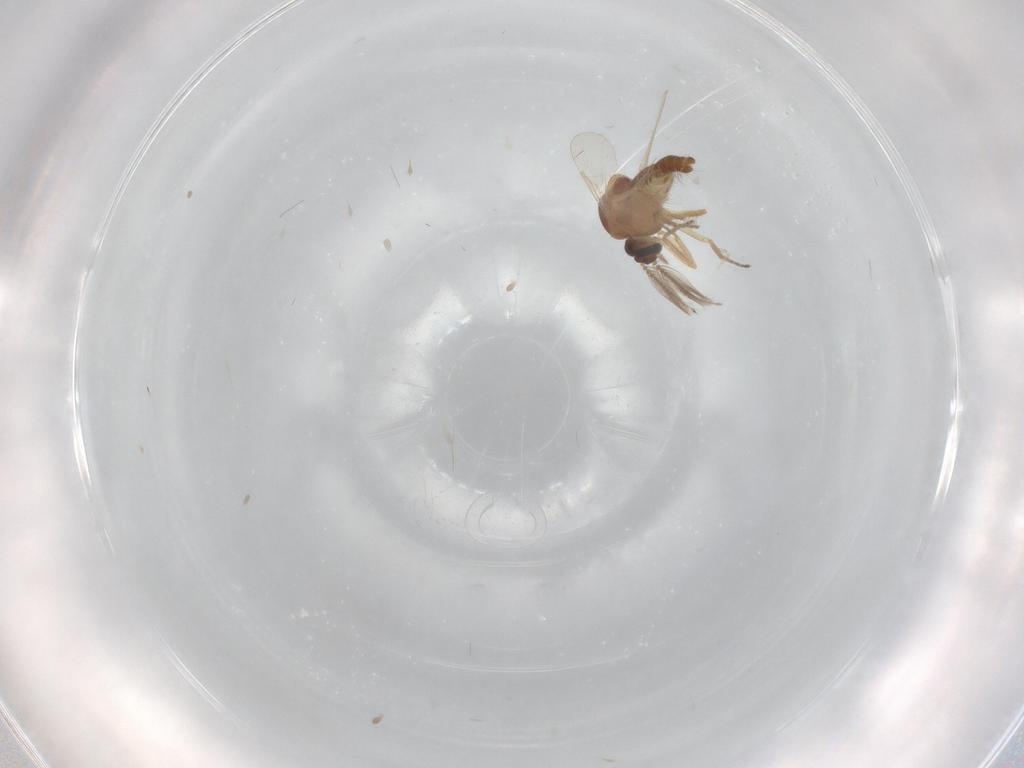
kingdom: Animalia
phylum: Arthropoda
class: Insecta
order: Diptera
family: Ceratopogonidae
